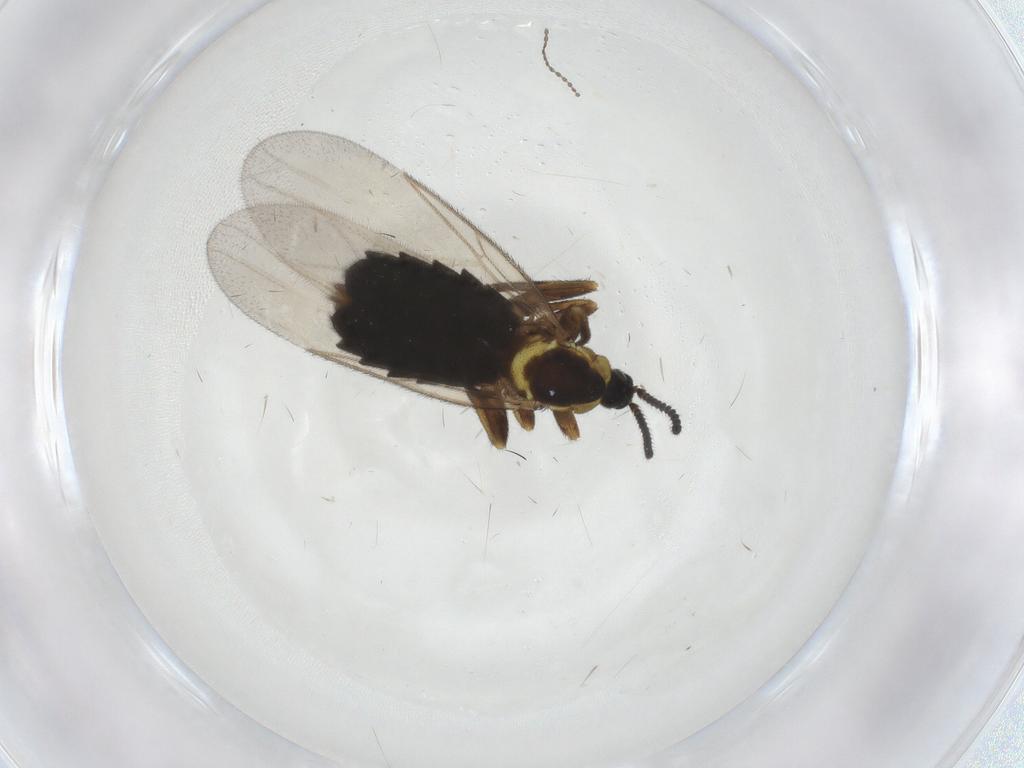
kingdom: Animalia
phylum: Arthropoda
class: Insecta
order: Diptera
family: Scatopsidae
